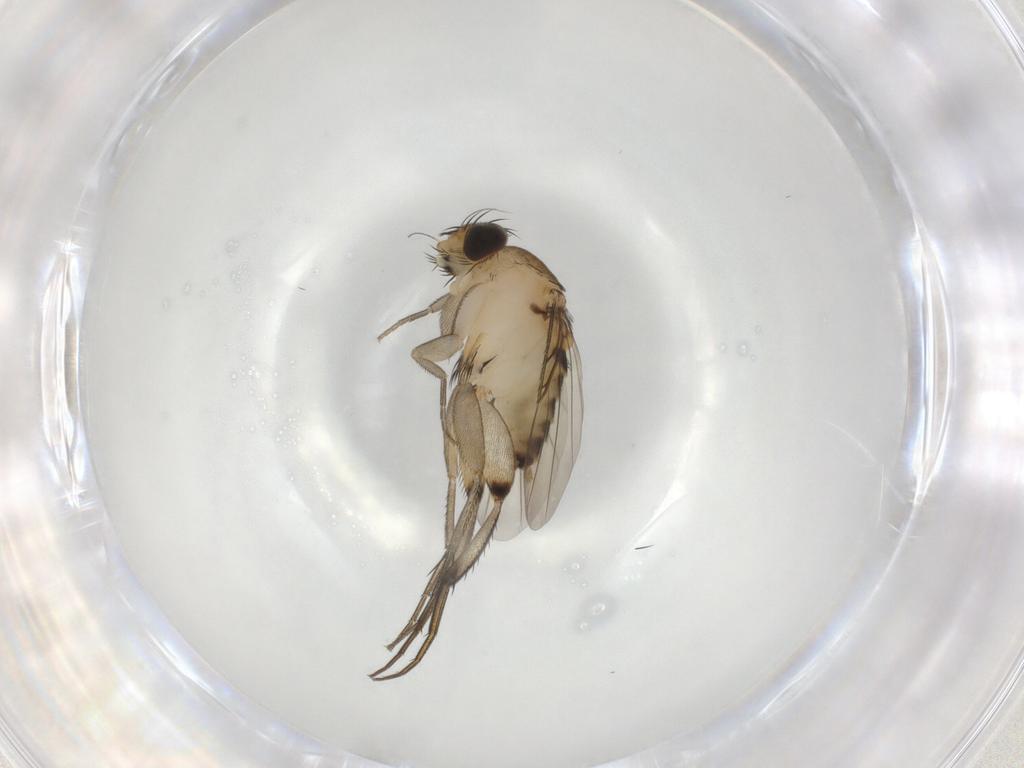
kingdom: Animalia
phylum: Arthropoda
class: Insecta
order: Diptera
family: Phoridae
